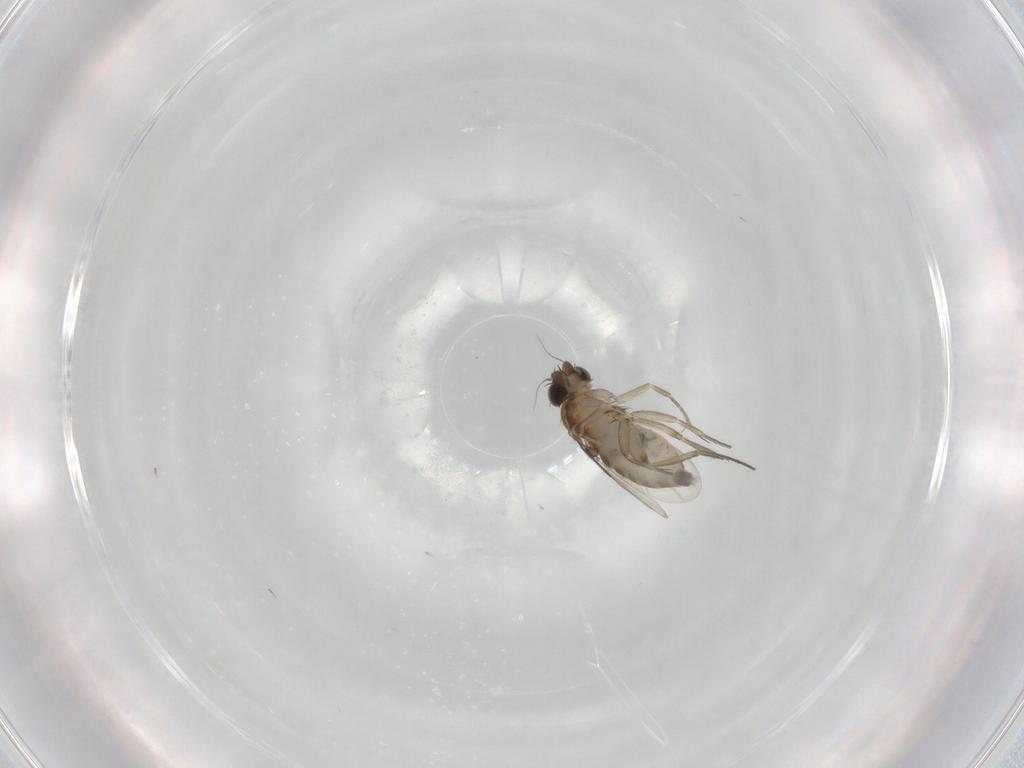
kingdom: Animalia
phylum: Arthropoda
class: Insecta
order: Diptera
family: Phoridae
